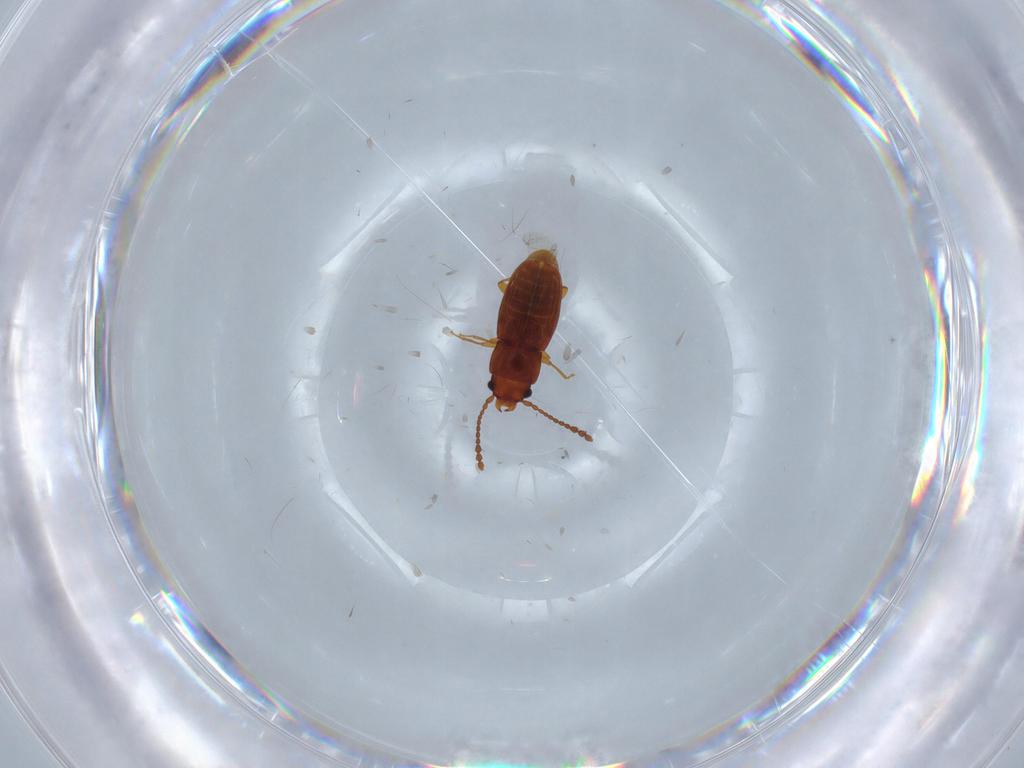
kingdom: Animalia
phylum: Arthropoda
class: Insecta
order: Coleoptera
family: Laemophloeidae
